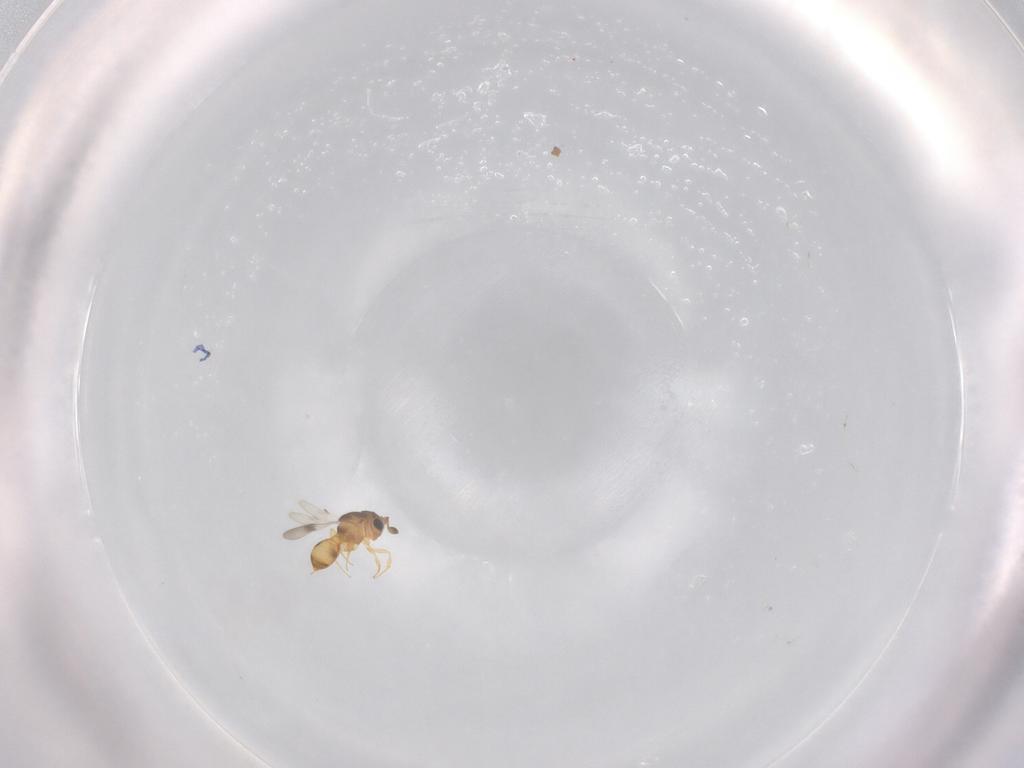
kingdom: Animalia
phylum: Arthropoda
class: Insecta
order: Hymenoptera
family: Scelionidae
